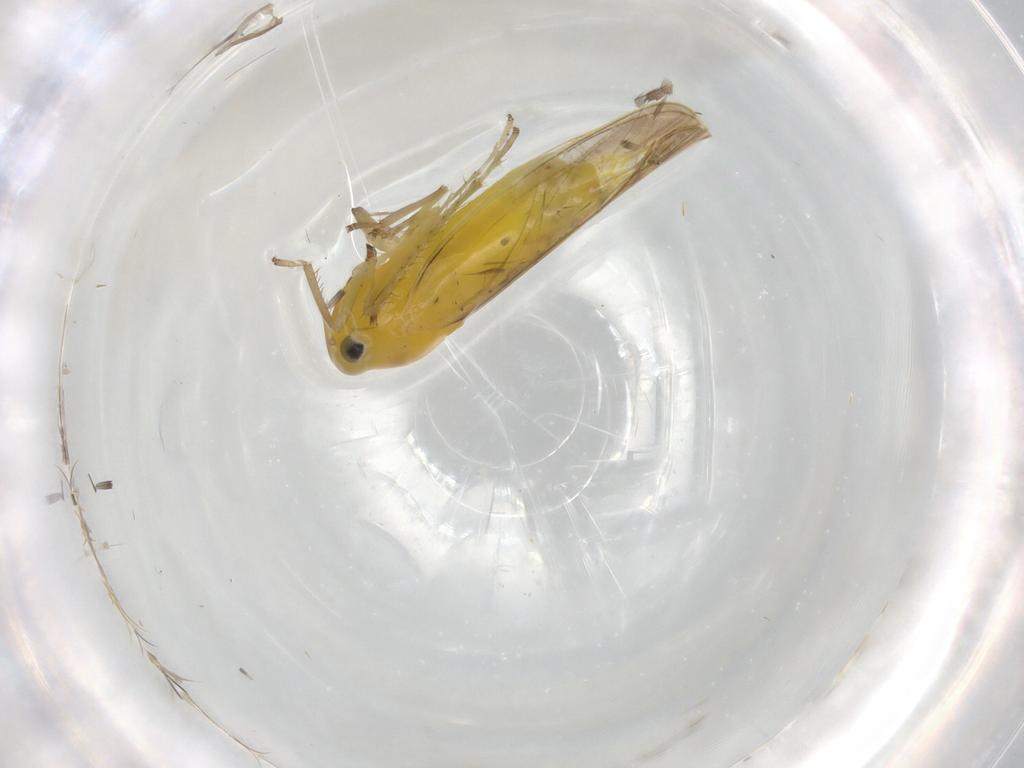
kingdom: Animalia
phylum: Arthropoda
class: Insecta
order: Hemiptera
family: Cicadellidae
